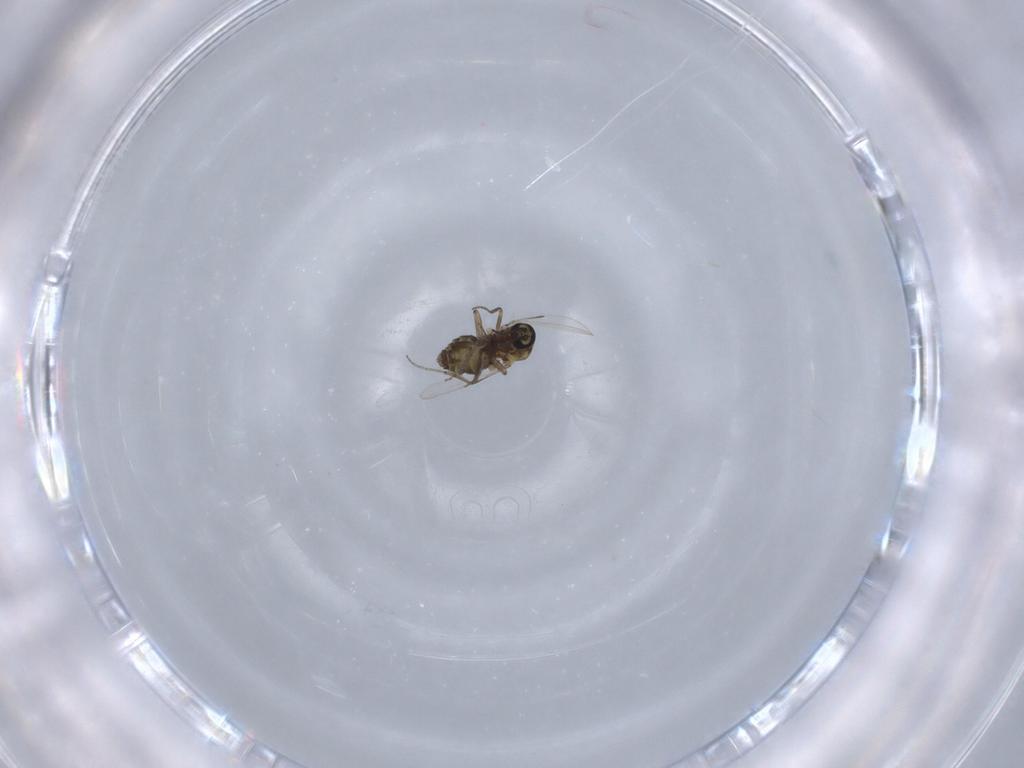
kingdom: Animalia
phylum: Arthropoda
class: Insecta
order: Diptera
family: Ceratopogonidae
